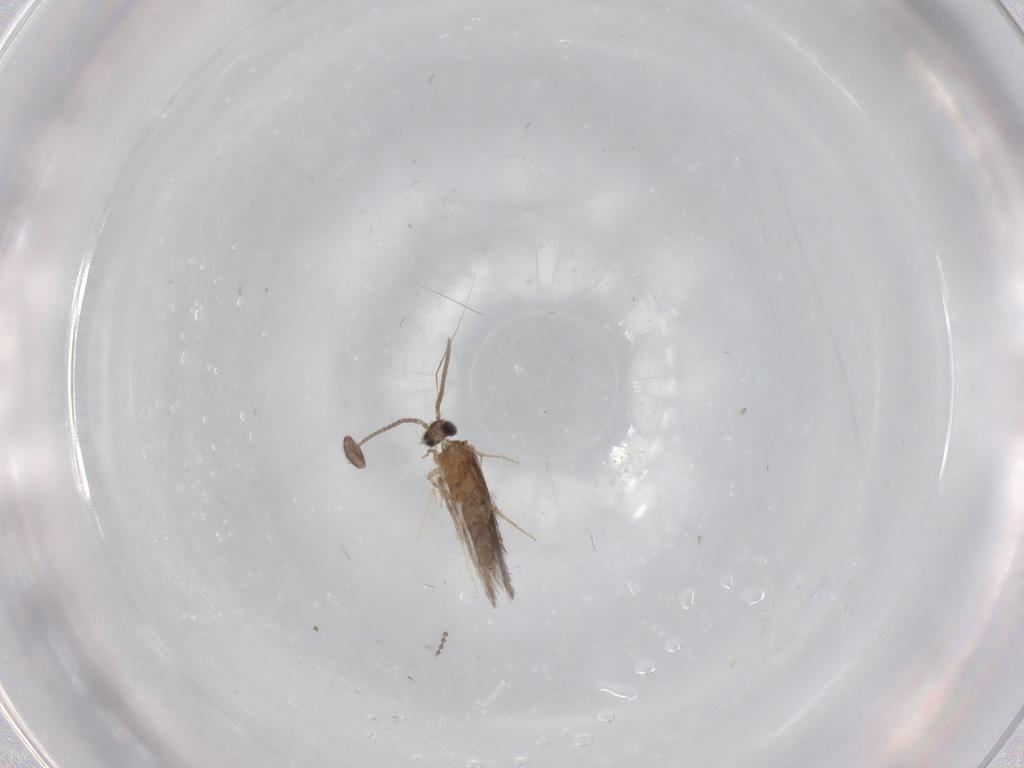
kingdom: Animalia
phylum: Arthropoda
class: Insecta
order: Trichoptera
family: Hydroptilidae
